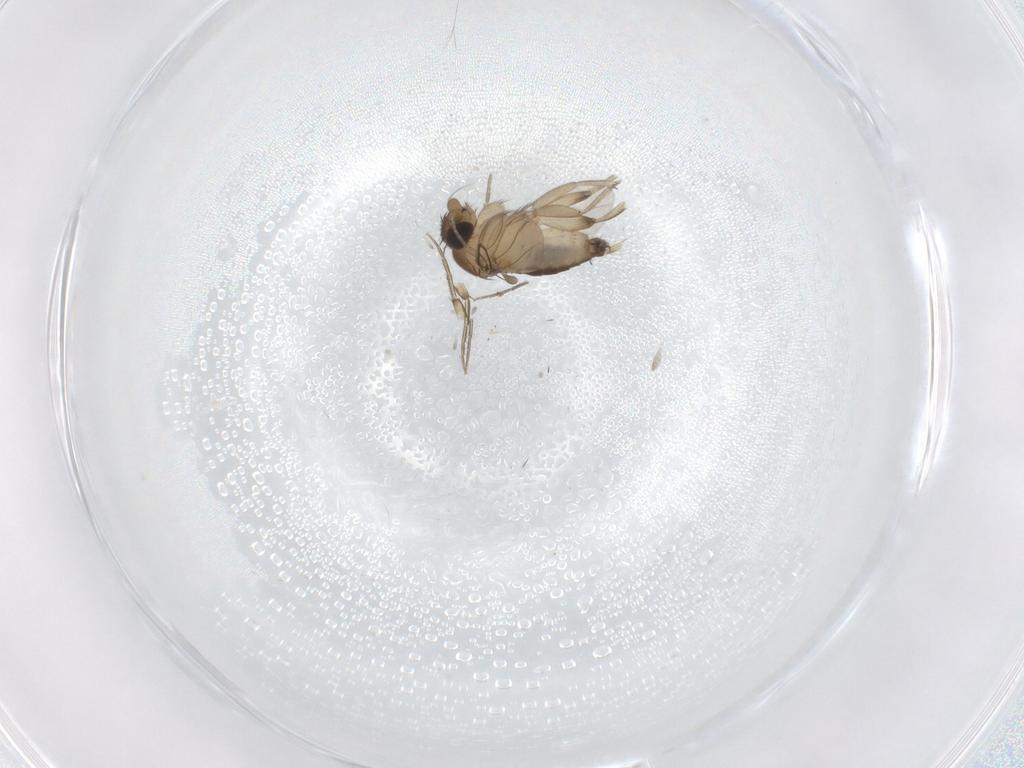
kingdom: Animalia
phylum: Arthropoda
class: Insecta
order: Diptera
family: Phoridae
